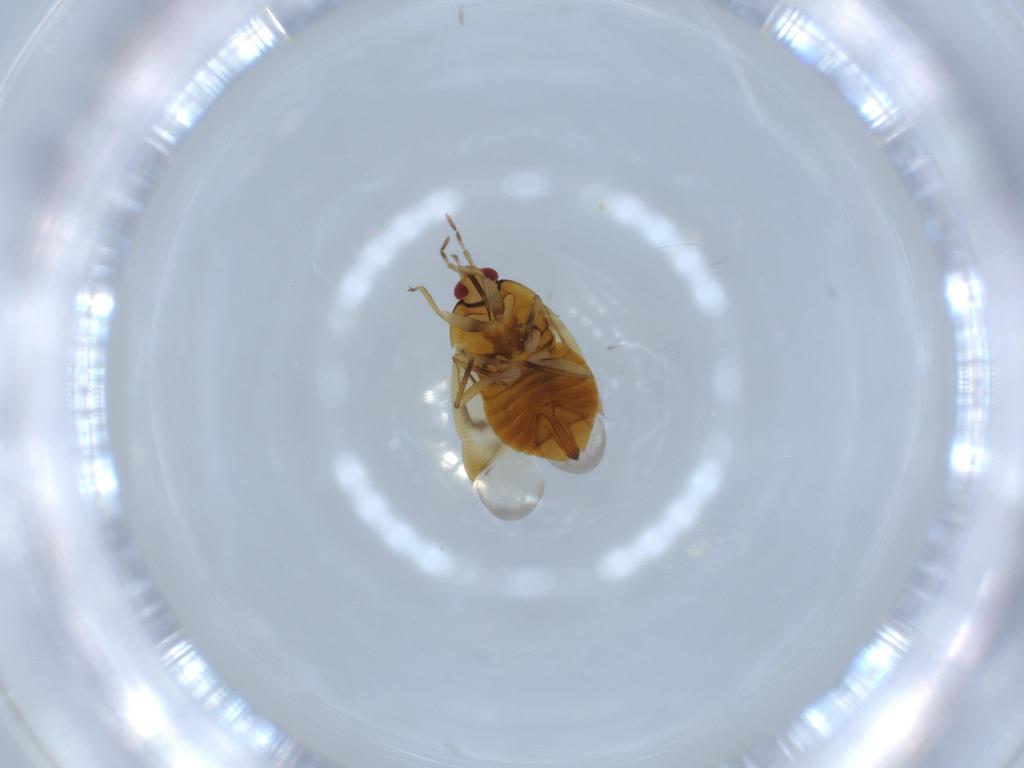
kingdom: Animalia
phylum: Arthropoda
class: Insecta
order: Hemiptera
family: Anthocoridae
